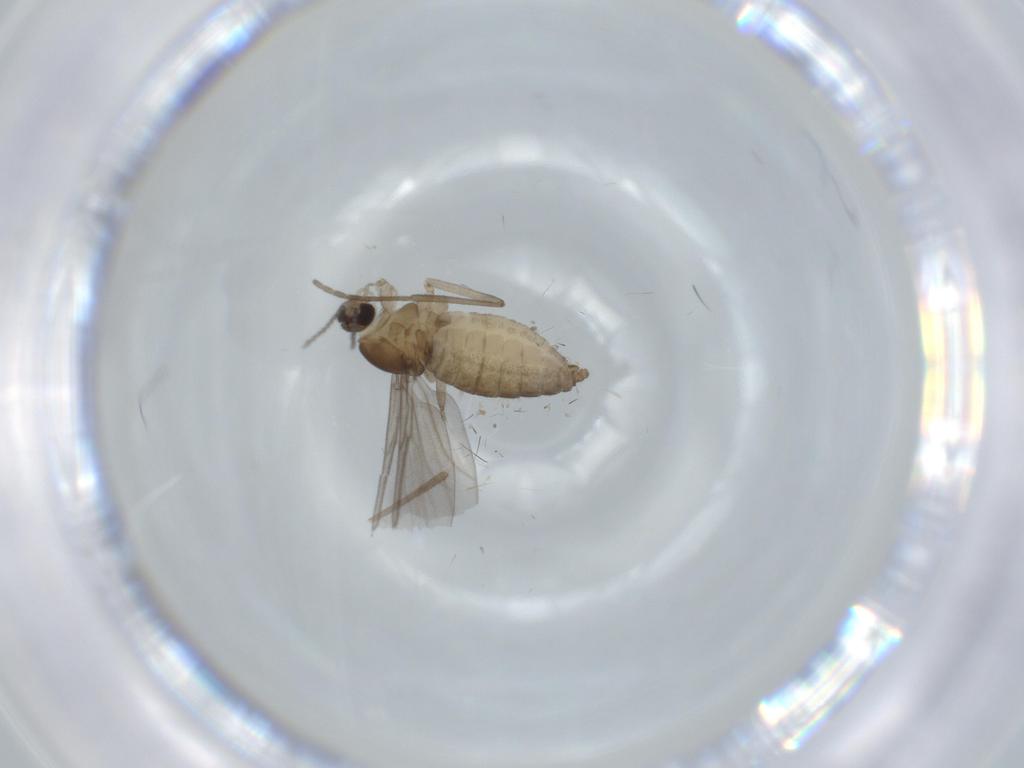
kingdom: Animalia
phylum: Arthropoda
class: Insecta
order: Diptera
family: Cecidomyiidae
